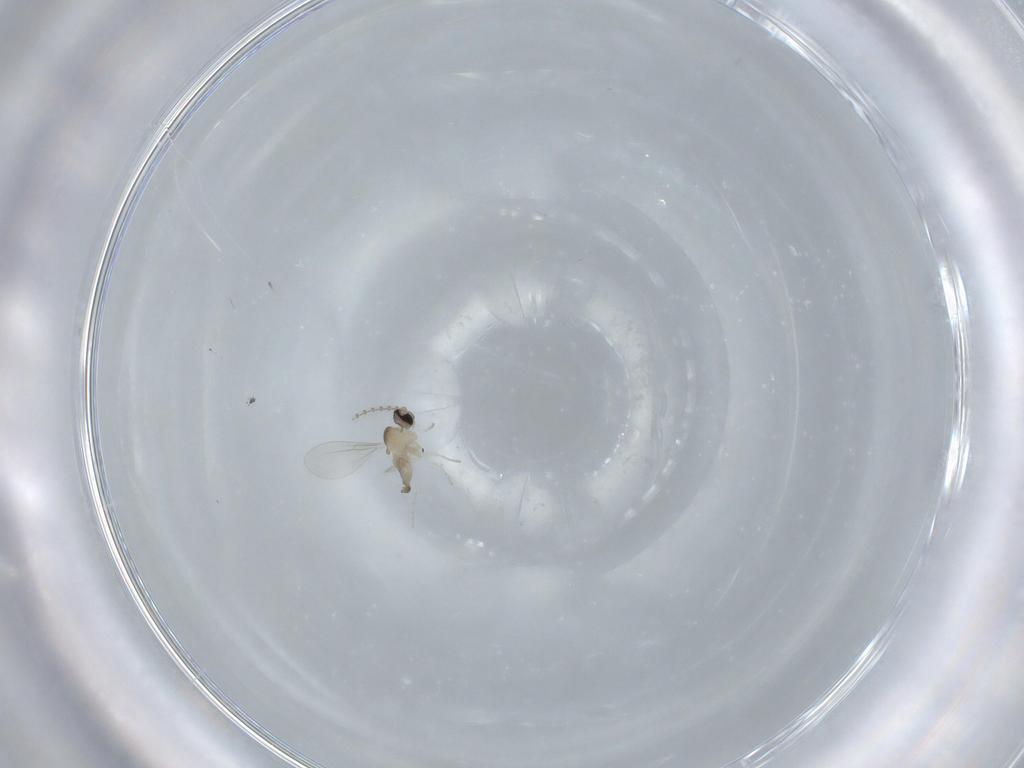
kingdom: Animalia
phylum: Arthropoda
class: Insecta
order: Diptera
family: Cecidomyiidae
